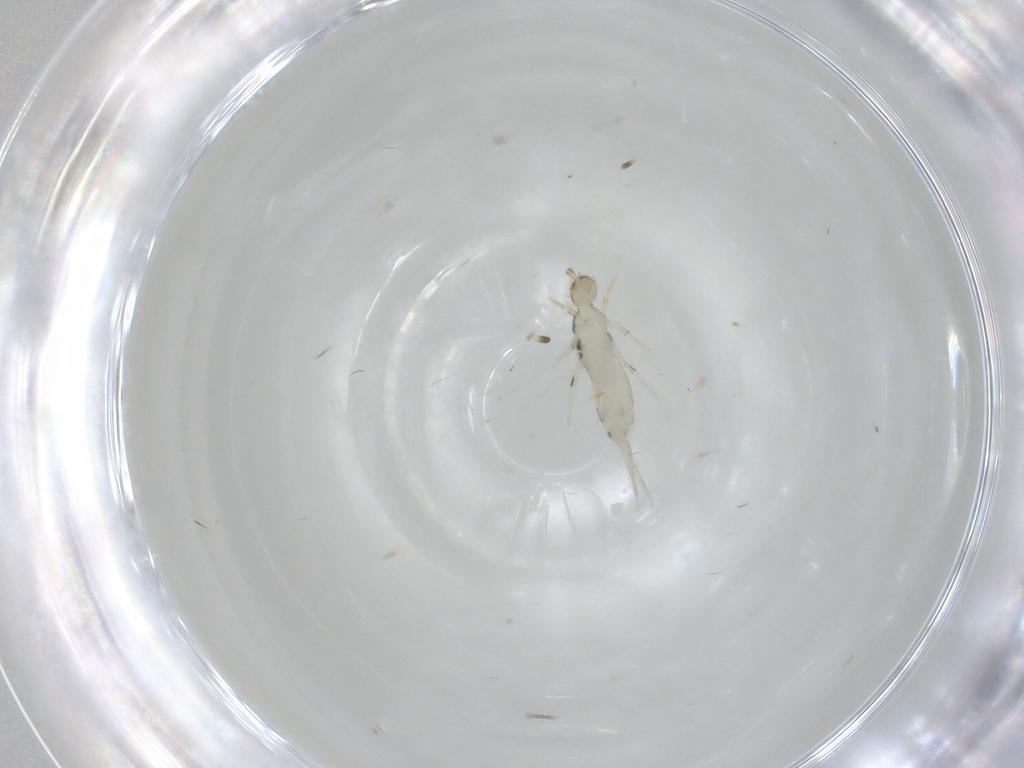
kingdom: Animalia
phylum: Arthropoda
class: Collembola
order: Entomobryomorpha
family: Entomobryidae
